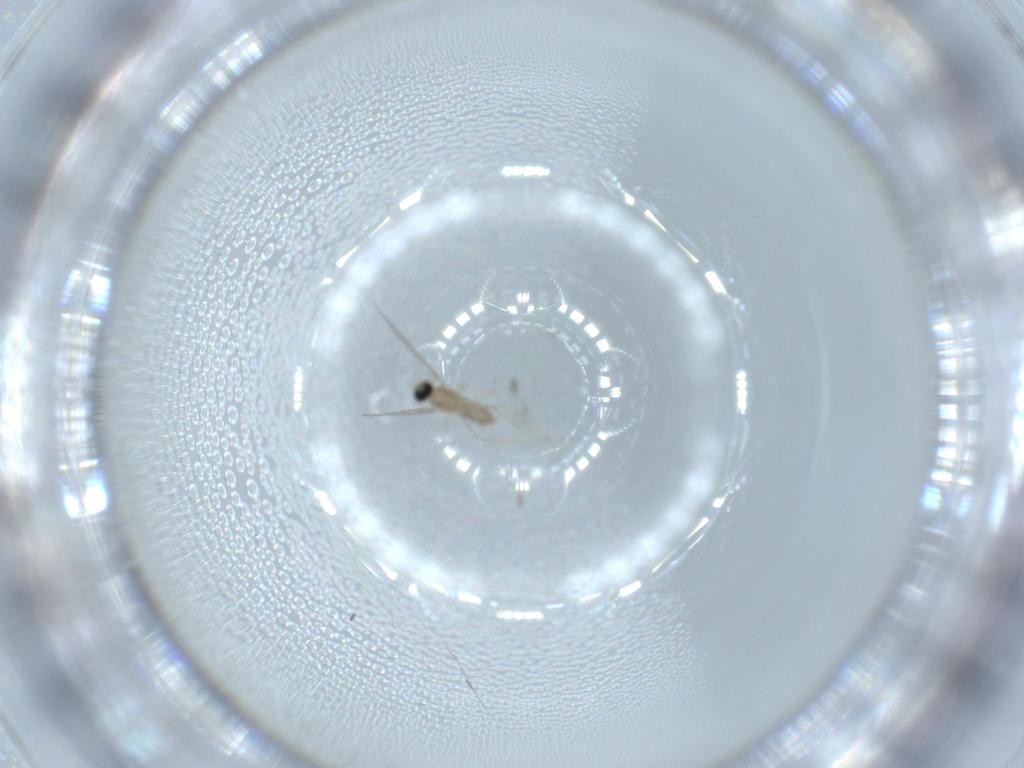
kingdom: Animalia
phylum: Arthropoda
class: Insecta
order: Diptera
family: Cecidomyiidae
